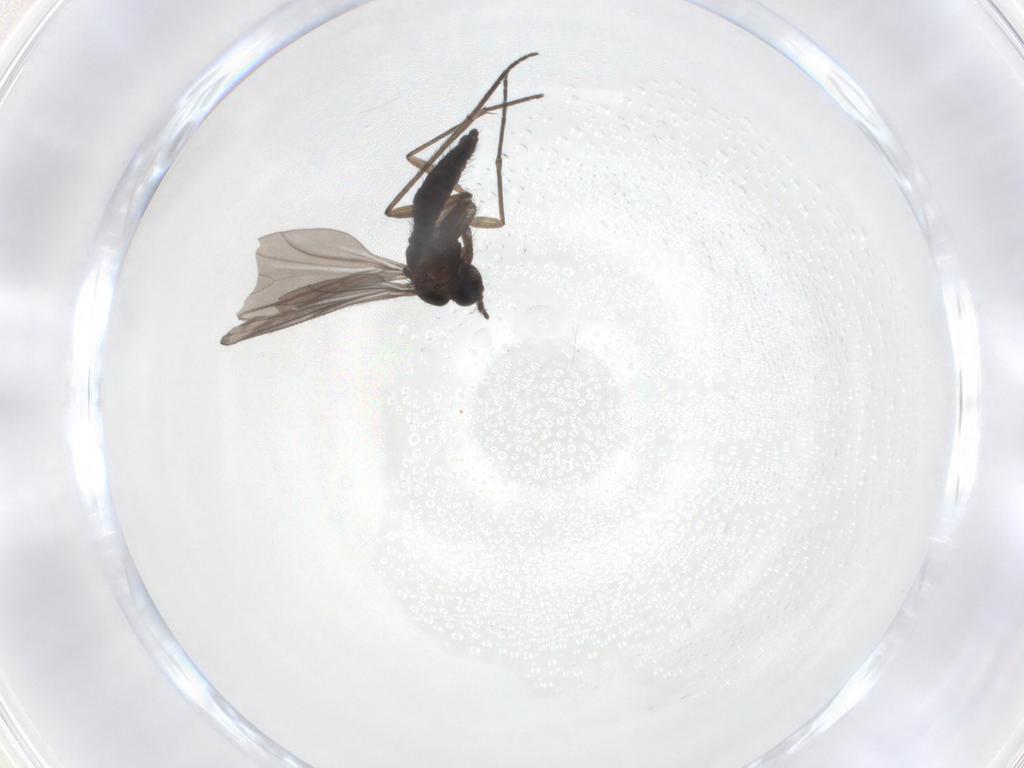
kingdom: Animalia
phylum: Arthropoda
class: Insecta
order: Diptera
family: Sciaridae
